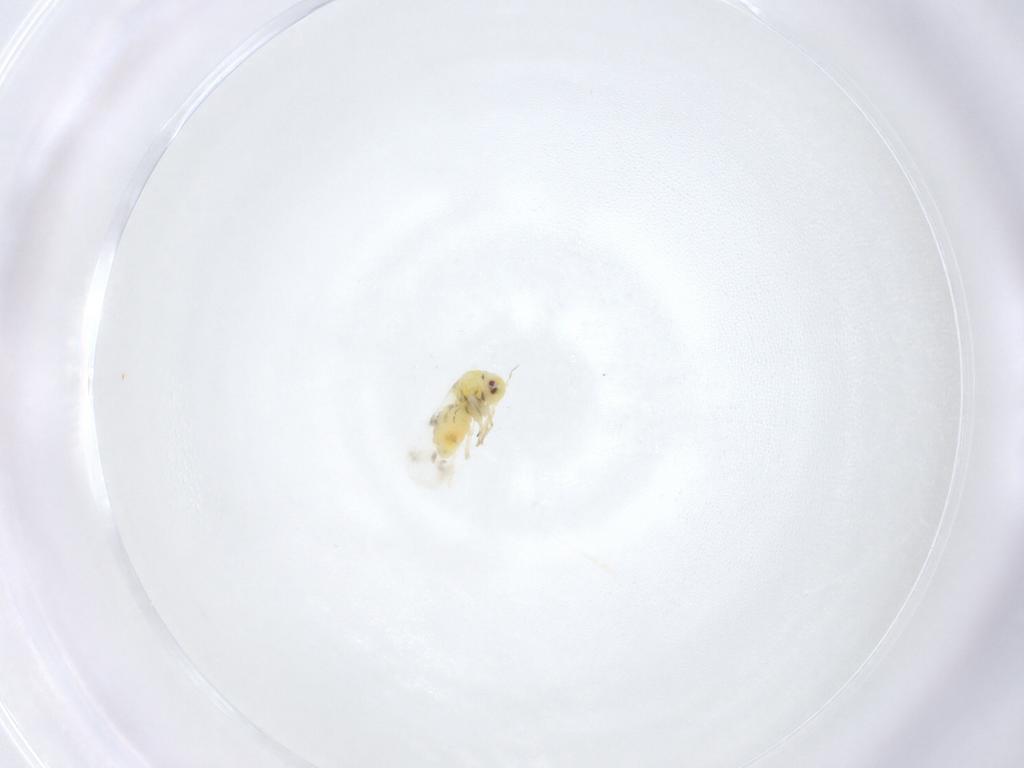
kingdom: Animalia
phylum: Arthropoda
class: Insecta
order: Hemiptera
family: Aleyrodidae
